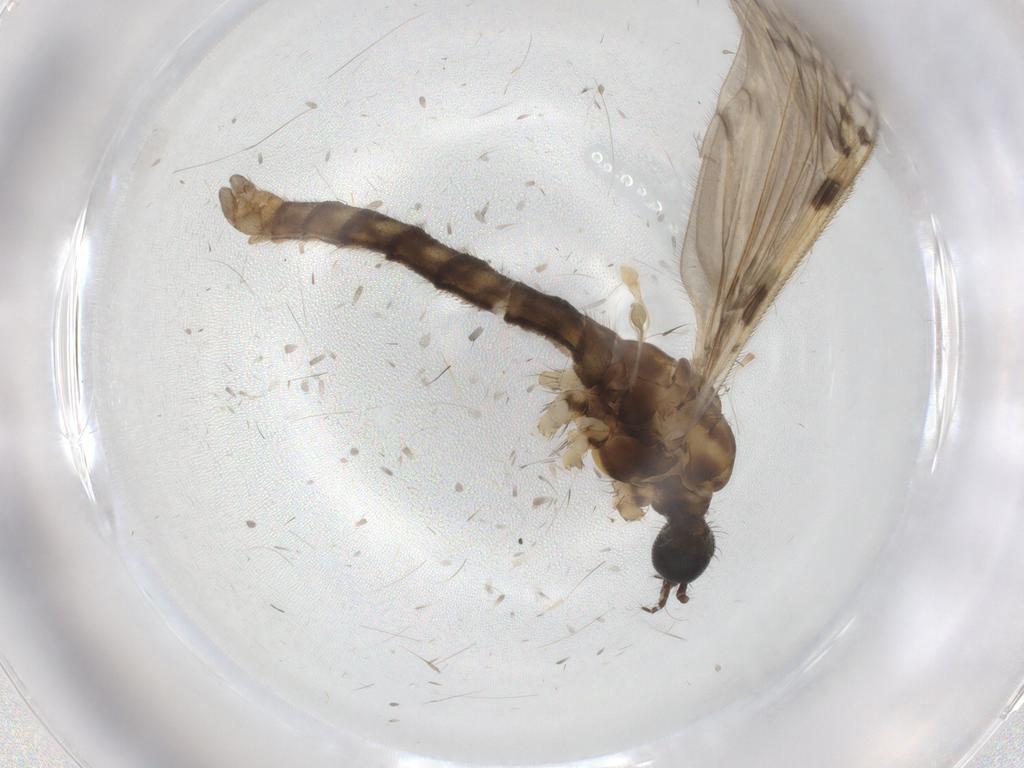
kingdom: Animalia
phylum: Arthropoda
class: Insecta
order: Diptera
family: Ceratopogonidae
